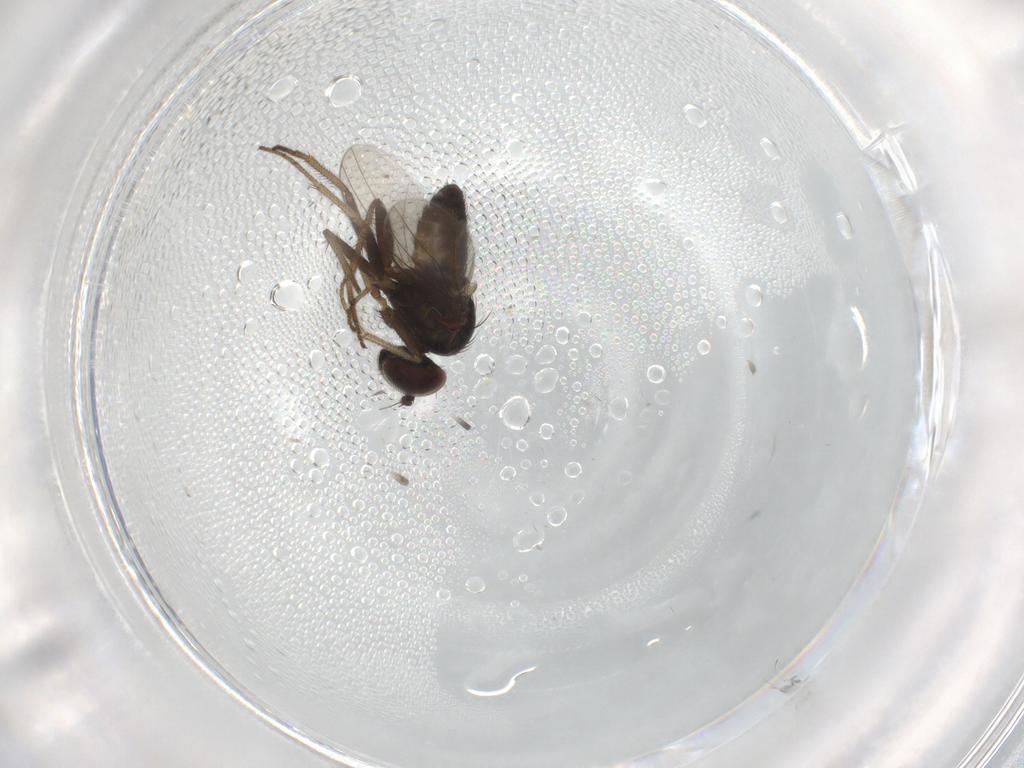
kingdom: Animalia
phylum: Arthropoda
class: Insecta
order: Diptera
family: Sciaridae
